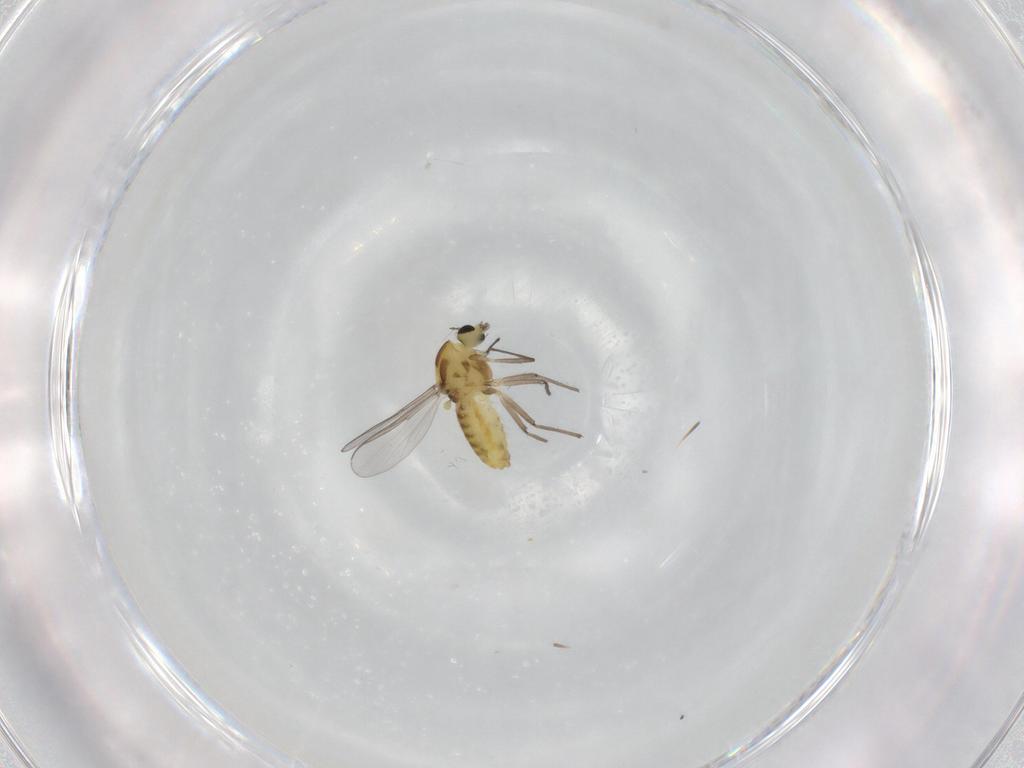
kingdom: Animalia
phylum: Arthropoda
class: Insecta
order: Diptera
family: Chironomidae
